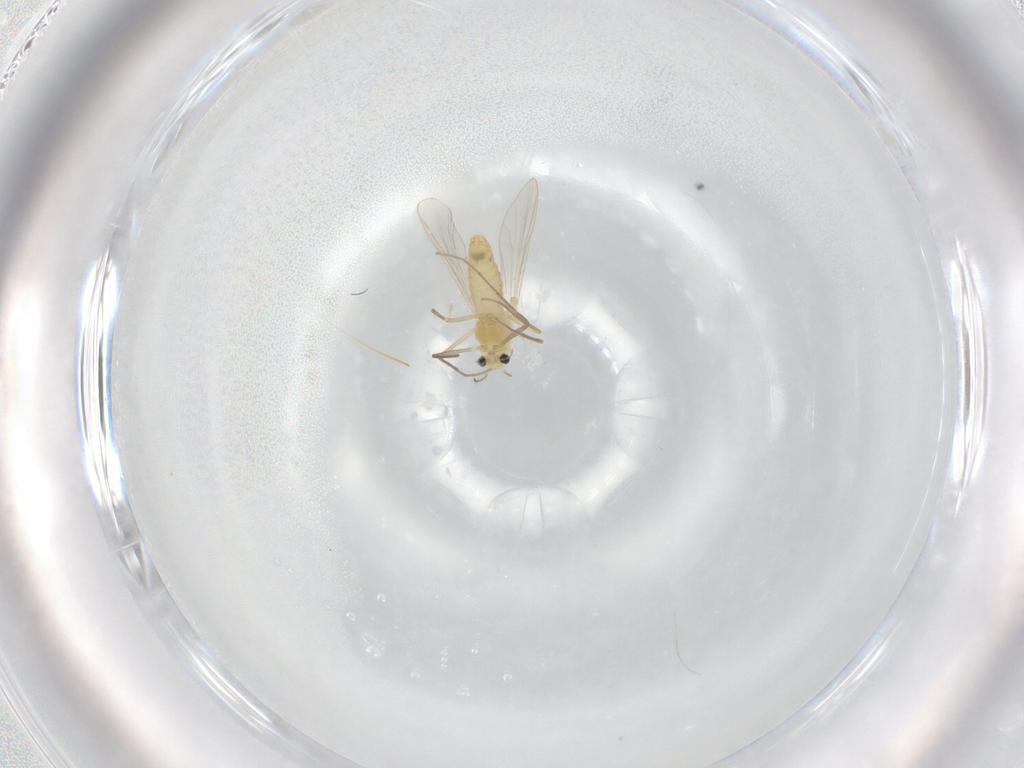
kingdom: Animalia
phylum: Arthropoda
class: Insecta
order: Diptera
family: Chironomidae
